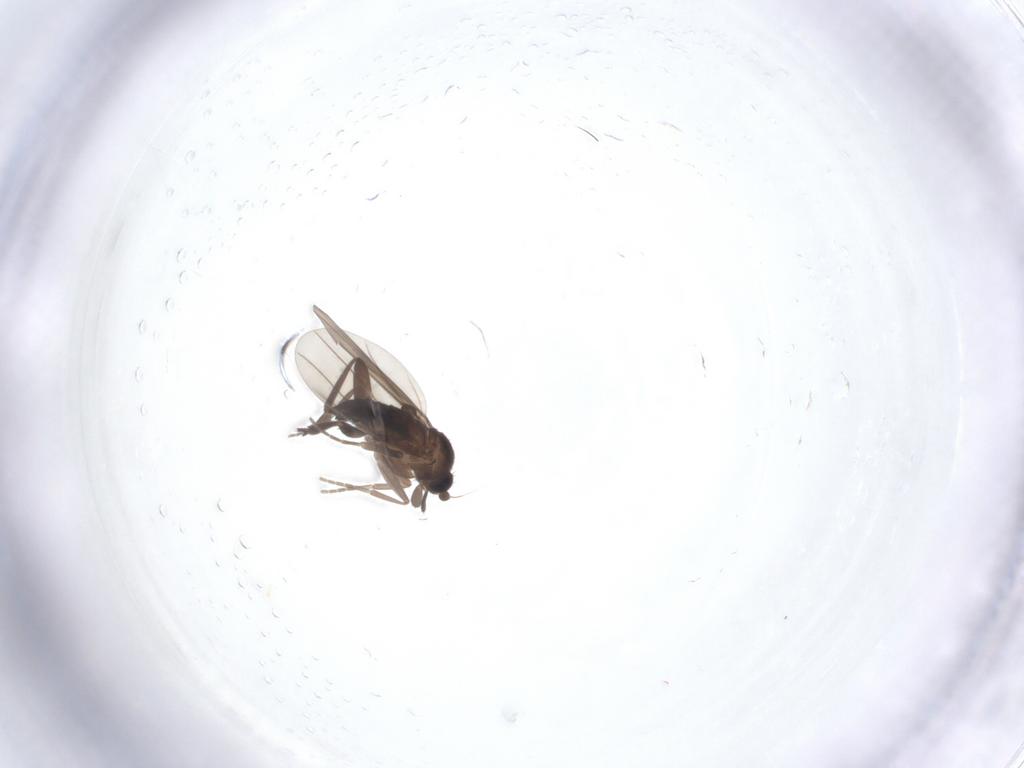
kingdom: Animalia
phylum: Arthropoda
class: Insecta
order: Diptera
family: Phoridae
